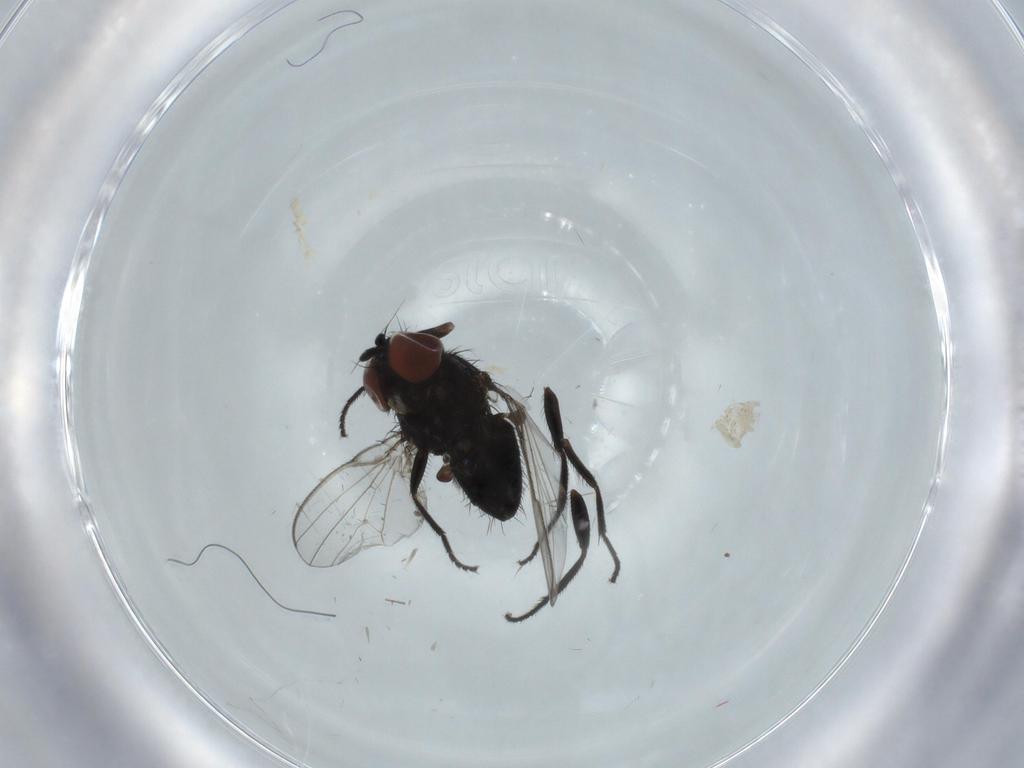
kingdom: Animalia
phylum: Arthropoda
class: Insecta
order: Diptera
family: Milichiidae
